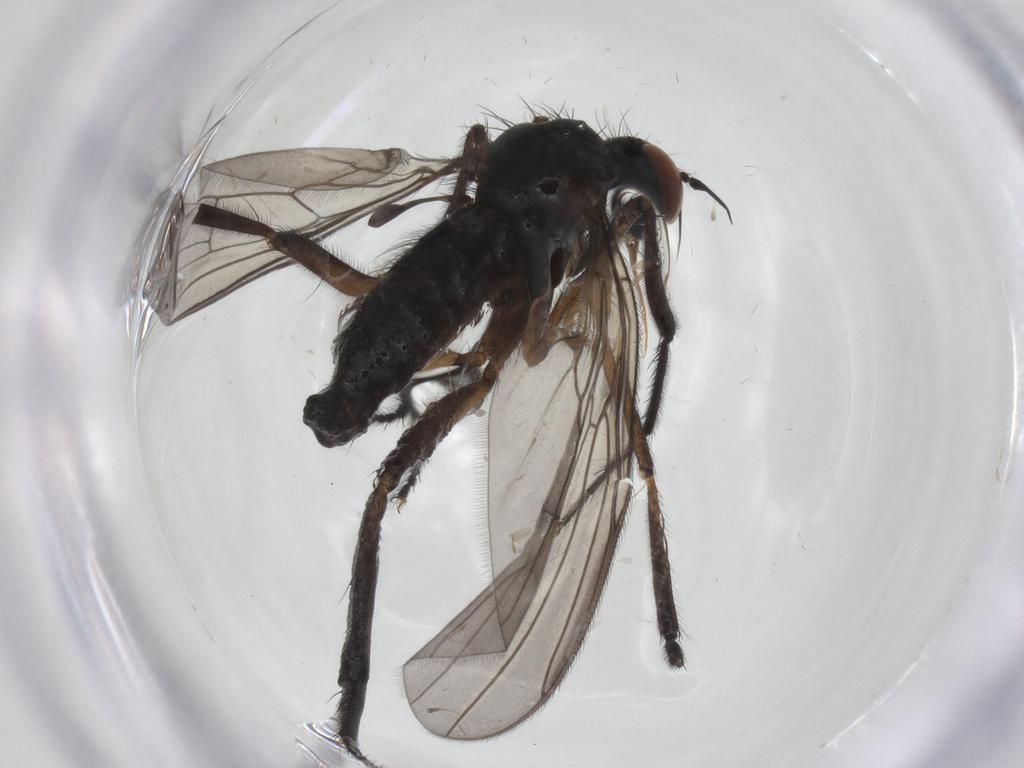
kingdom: Animalia
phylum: Arthropoda
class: Insecta
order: Diptera
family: Empididae
